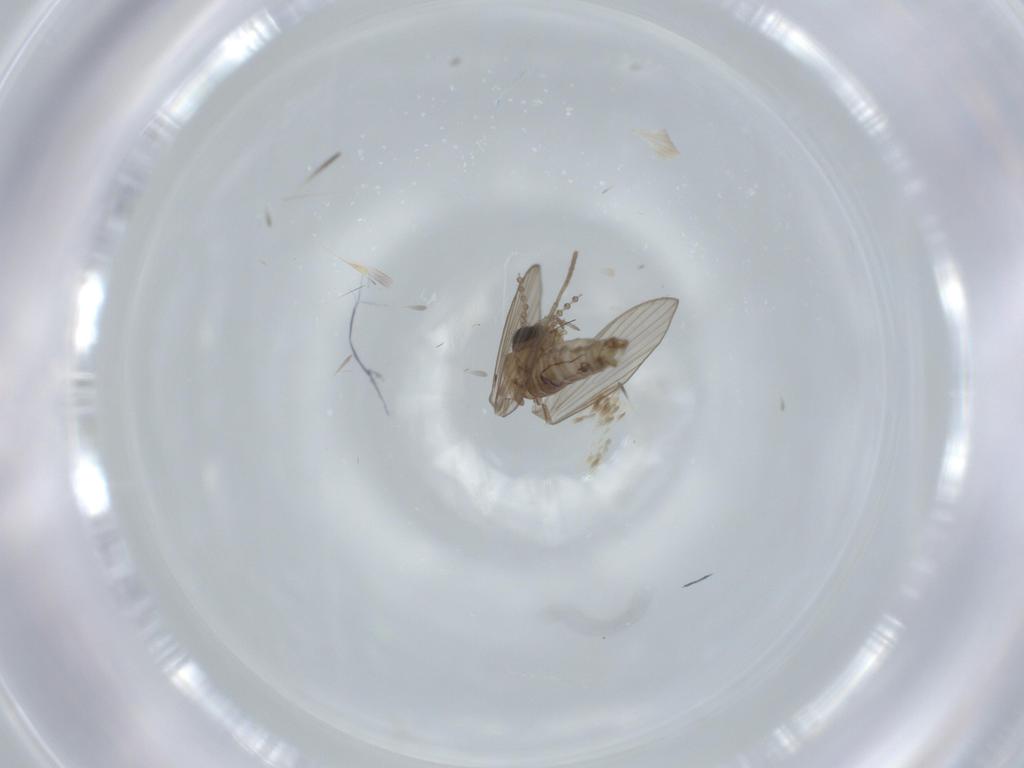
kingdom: Animalia
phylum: Arthropoda
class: Insecta
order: Diptera
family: Psychodidae
